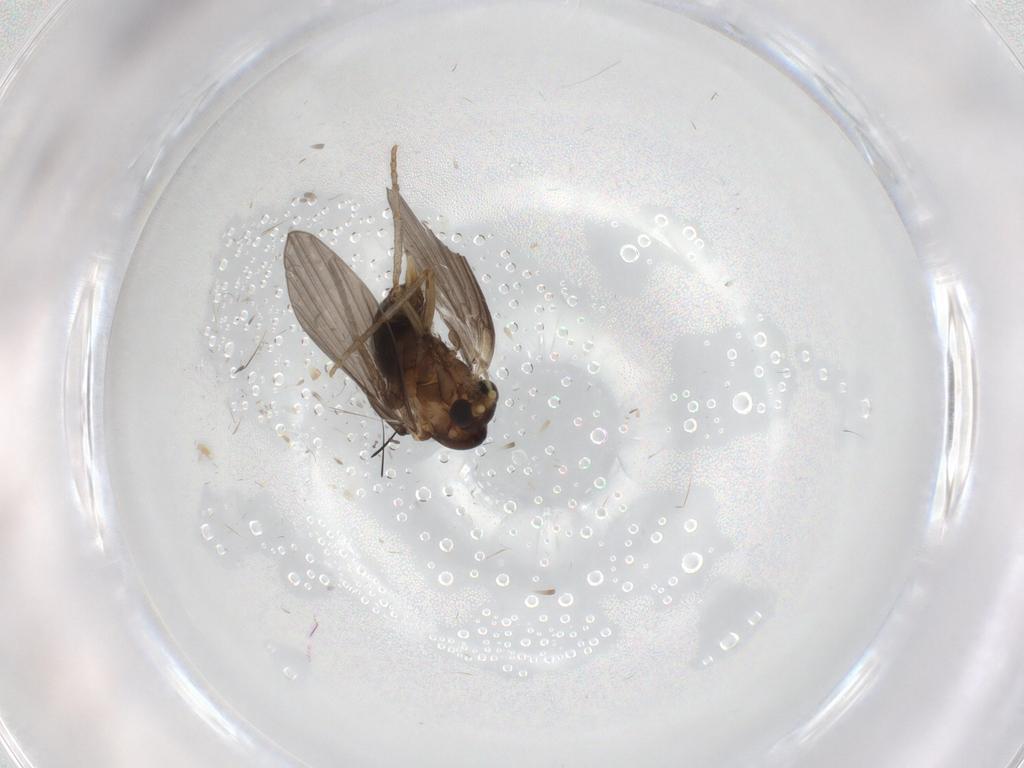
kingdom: Animalia
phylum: Arthropoda
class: Insecta
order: Diptera
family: Psychodidae
